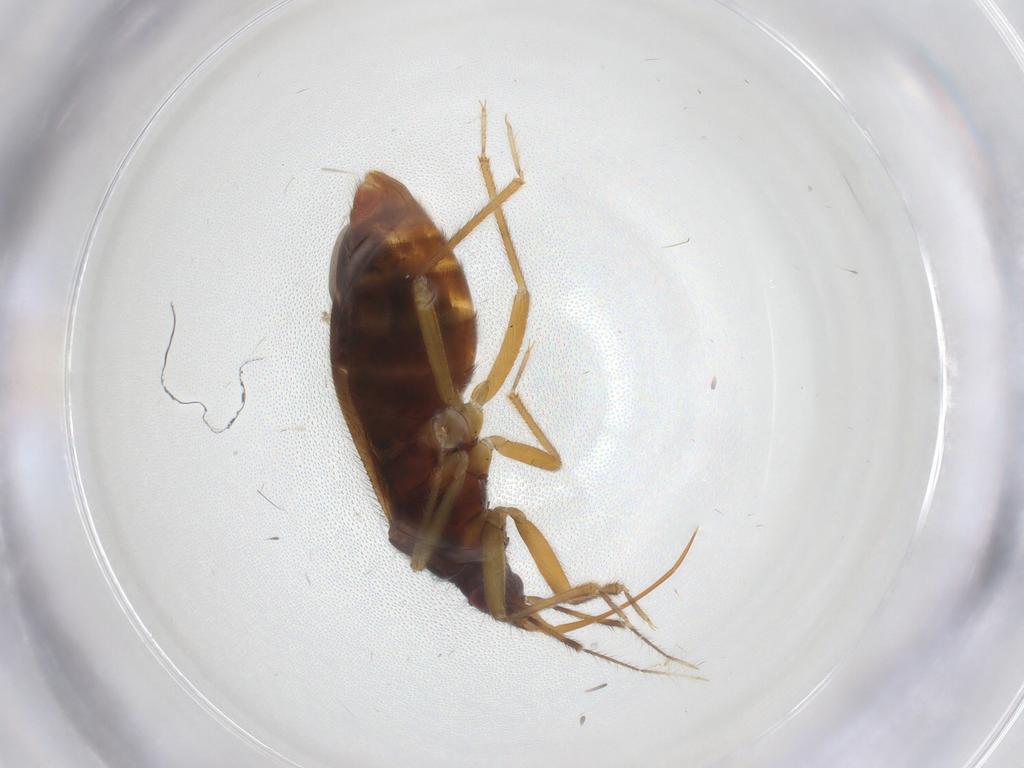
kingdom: Animalia
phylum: Arthropoda
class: Insecta
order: Hemiptera
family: Anthocoridae
